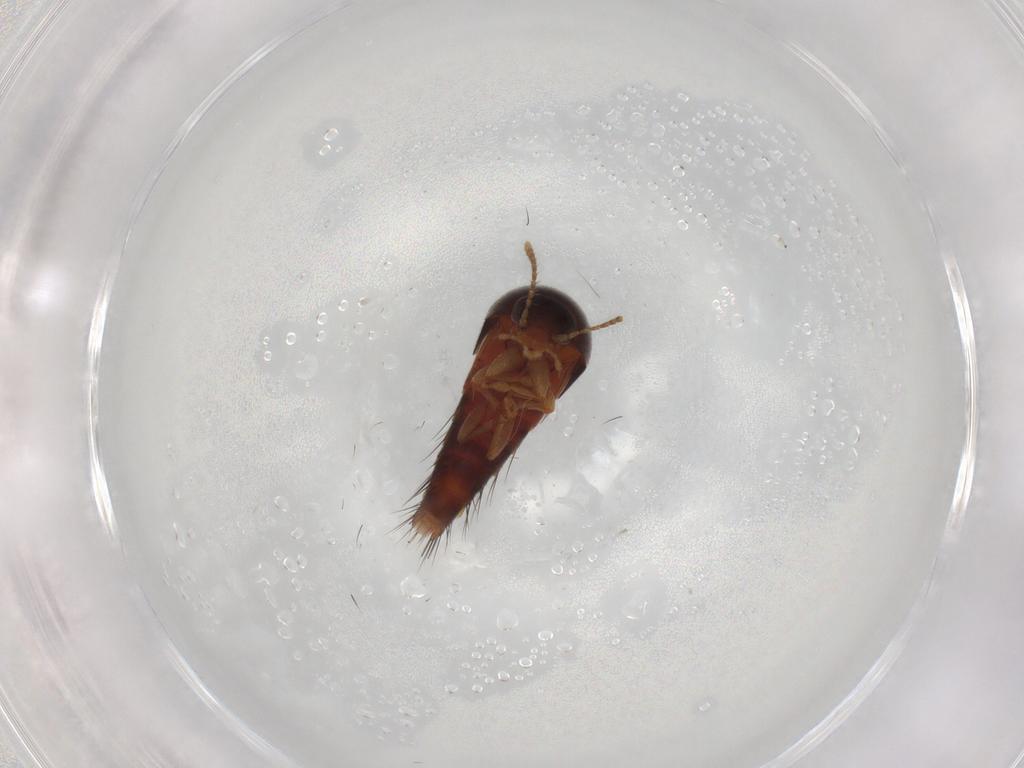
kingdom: Animalia
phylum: Arthropoda
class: Insecta
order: Coleoptera
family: Staphylinidae
